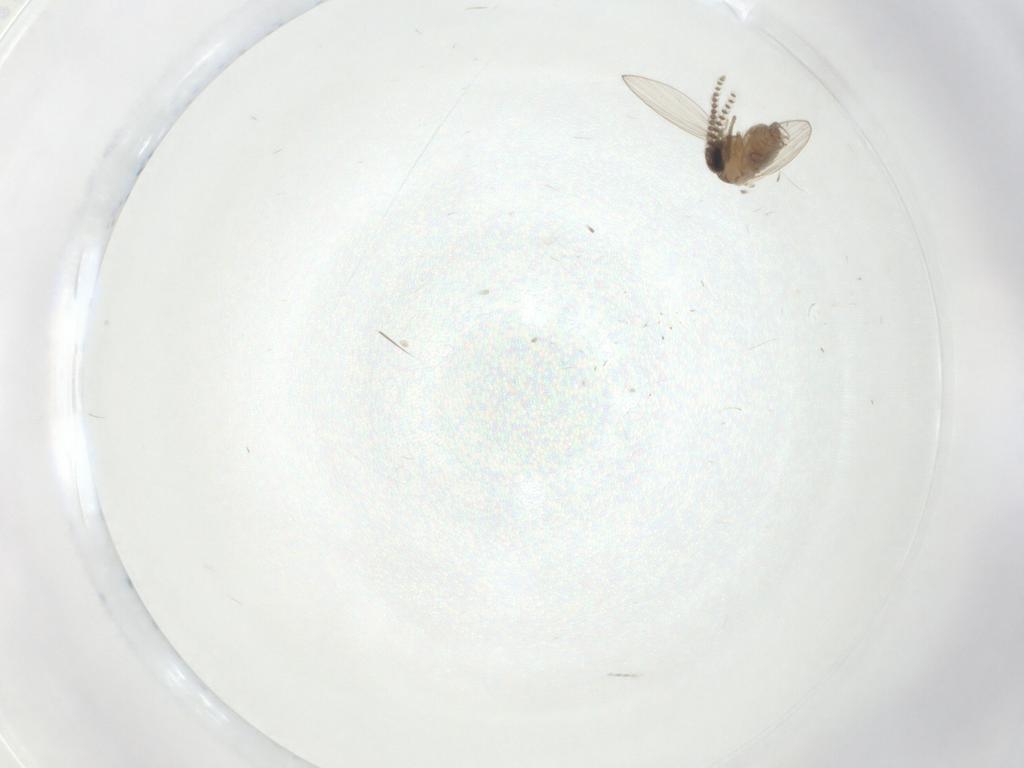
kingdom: Animalia
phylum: Arthropoda
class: Insecta
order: Diptera
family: Psychodidae
